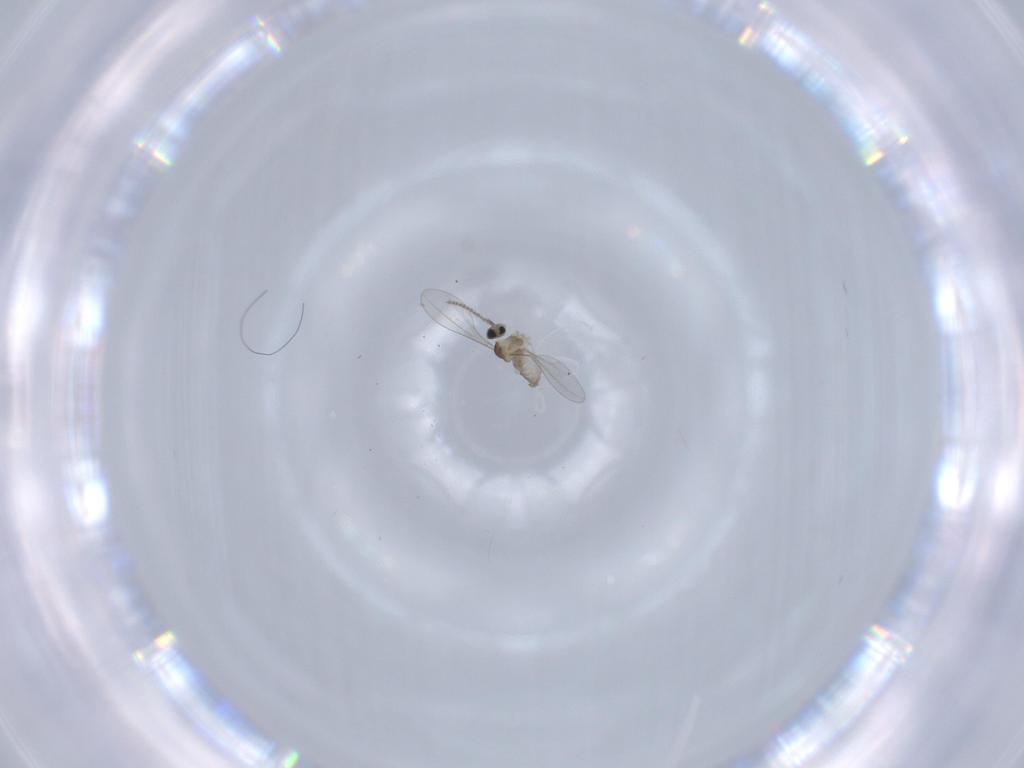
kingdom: Animalia
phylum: Arthropoda
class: Insecta
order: Diptera
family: Cecidomyiidae
